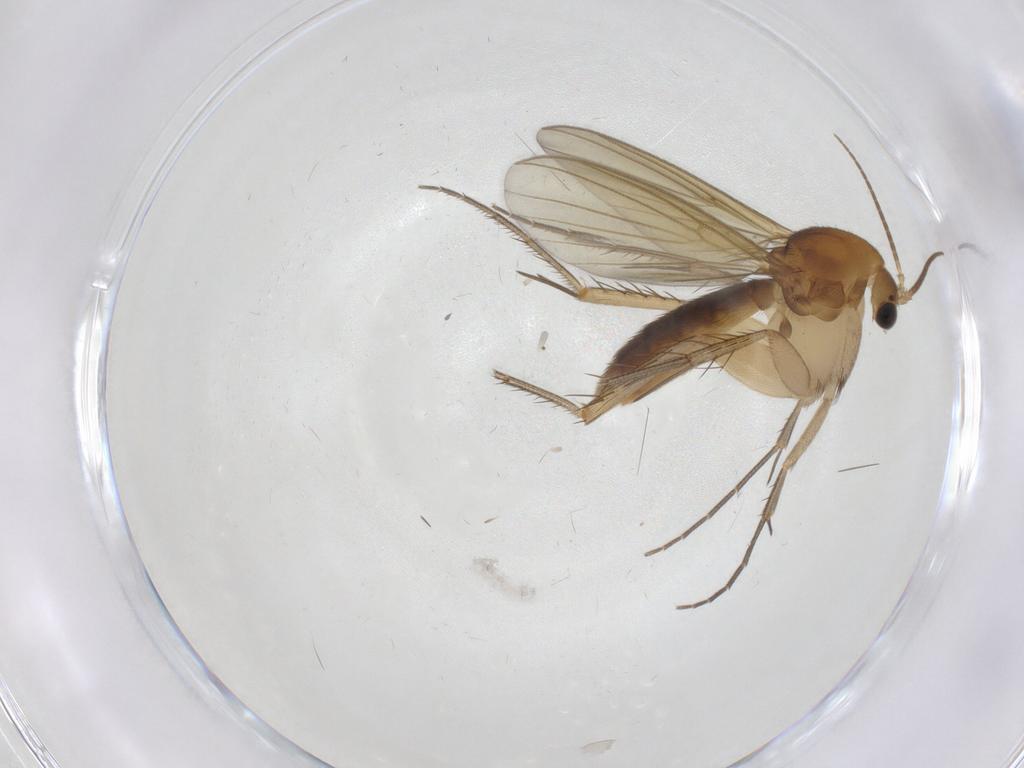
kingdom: Animalia
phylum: Arthropoda
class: Insecta
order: Diptera
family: Mycetophilidae
